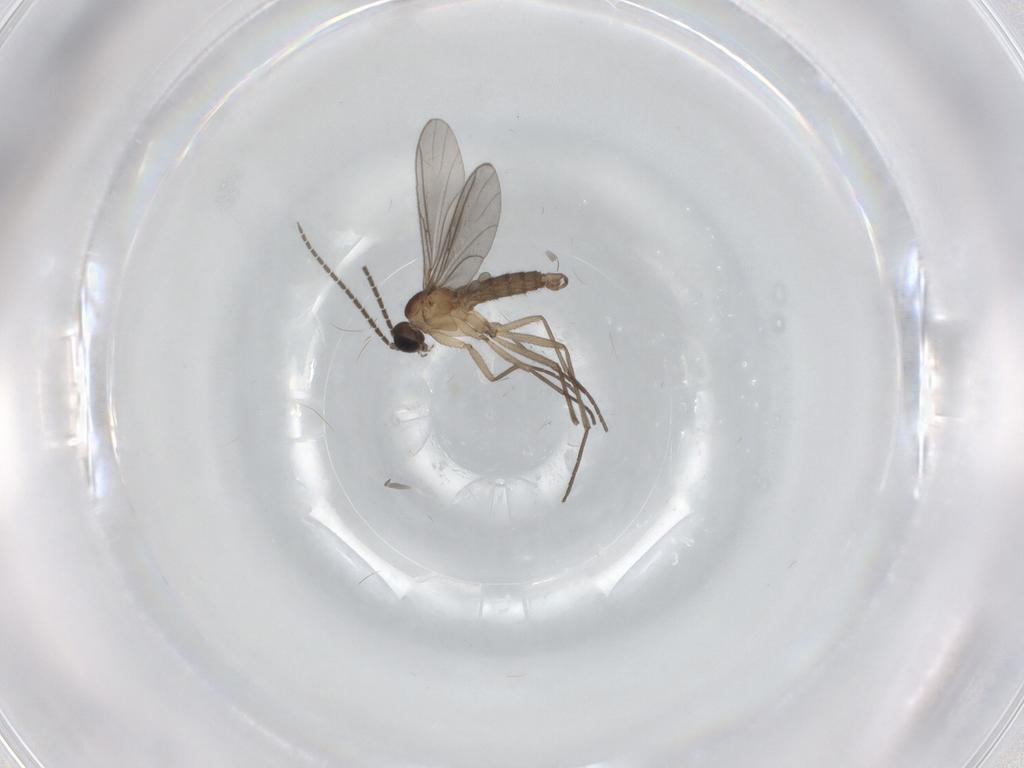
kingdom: Animalia
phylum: Arthropoda
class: Insecta
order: Diptera
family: Sciaridae
